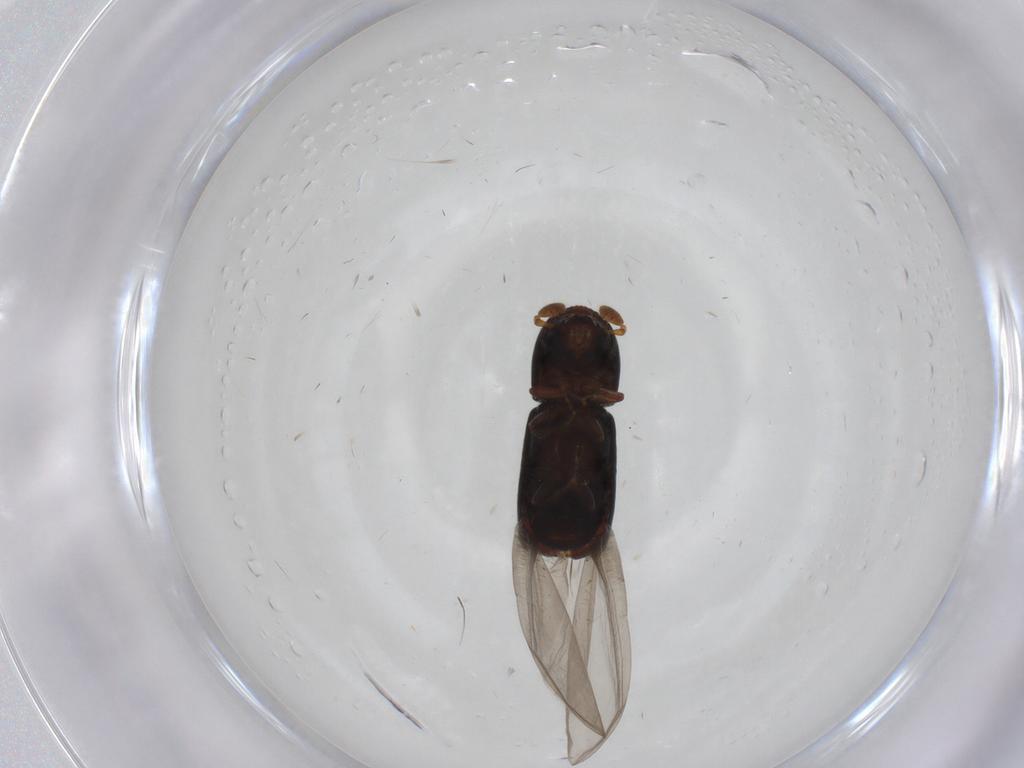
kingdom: Animalia
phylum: Arthropoda
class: Insecta
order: Coleoptera
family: Curculionidae
